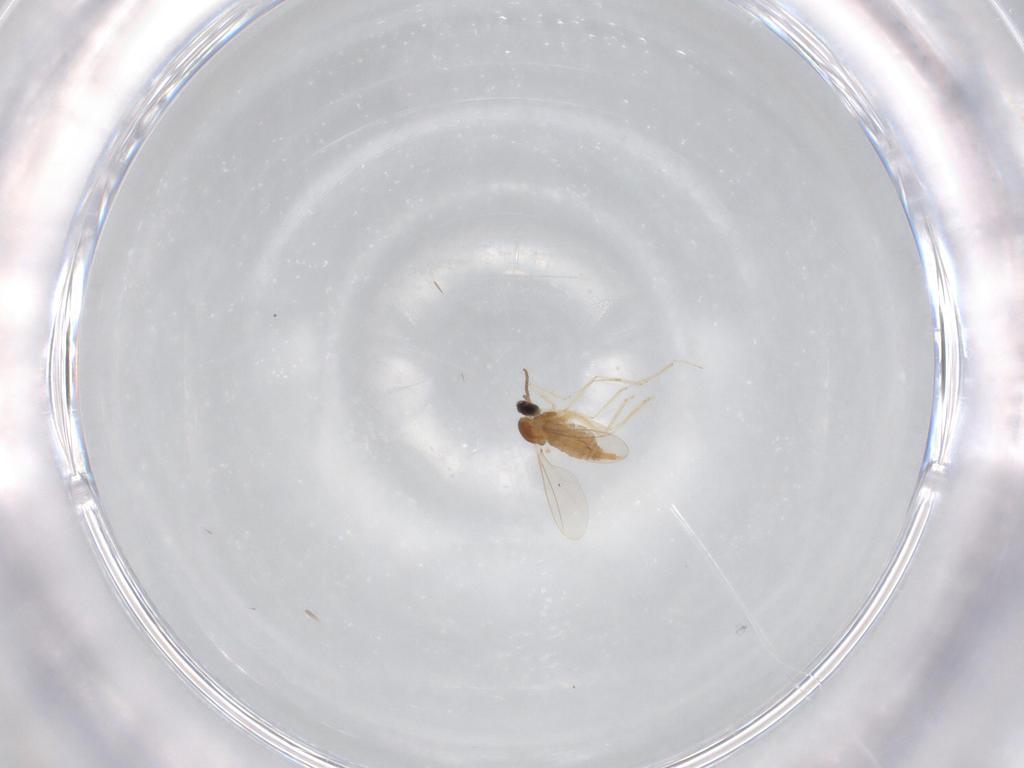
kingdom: Animalia
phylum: Arthropoda
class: Insecta
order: Diptera
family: Cecidomyiidae
